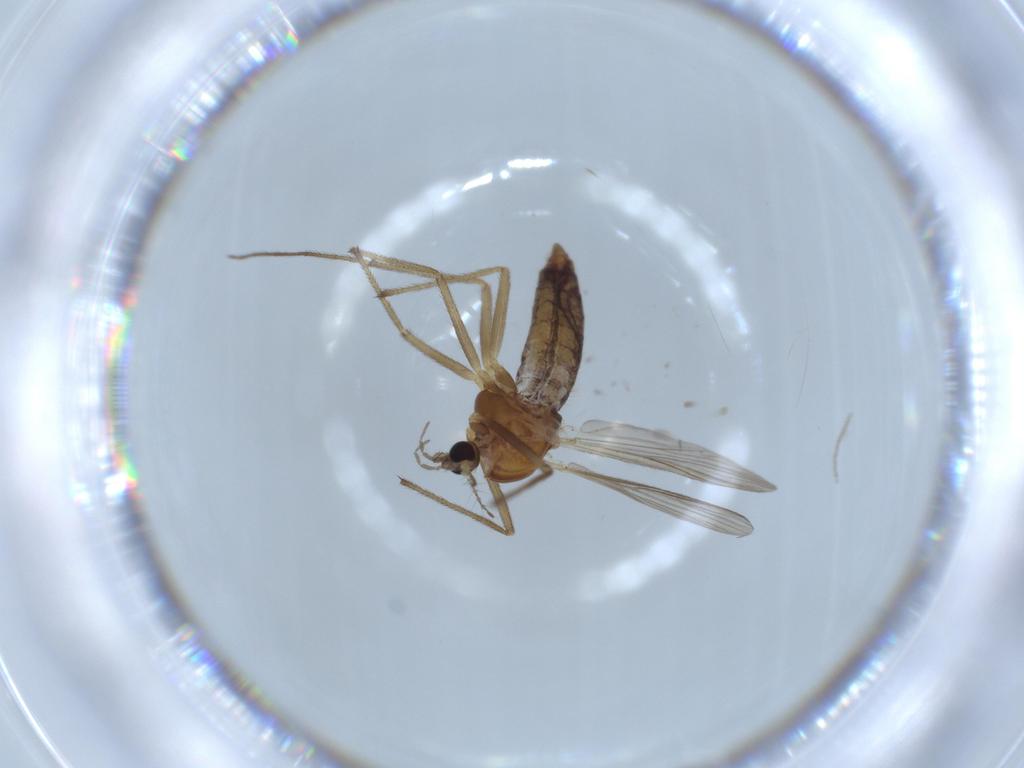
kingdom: Animalia
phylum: Arthropoda
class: Insecta
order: Diptera
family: Chironomidae
